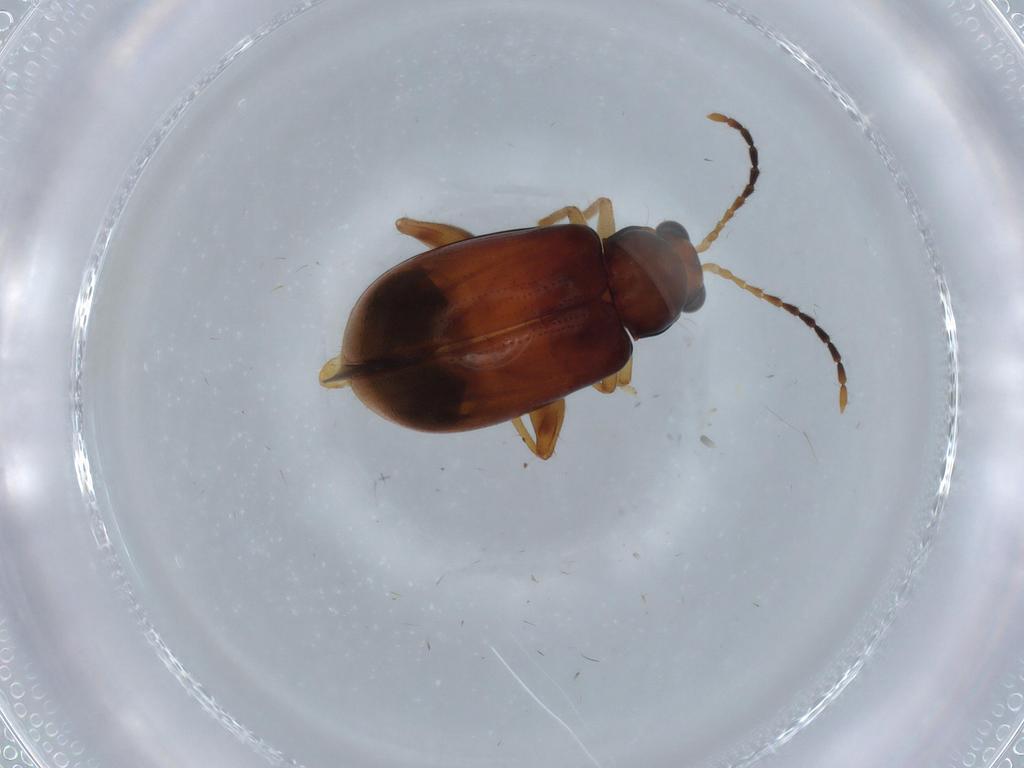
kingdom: Animalia
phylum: Arthropoda
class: Insecta
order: Coleoptera
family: Chrysomelidae
